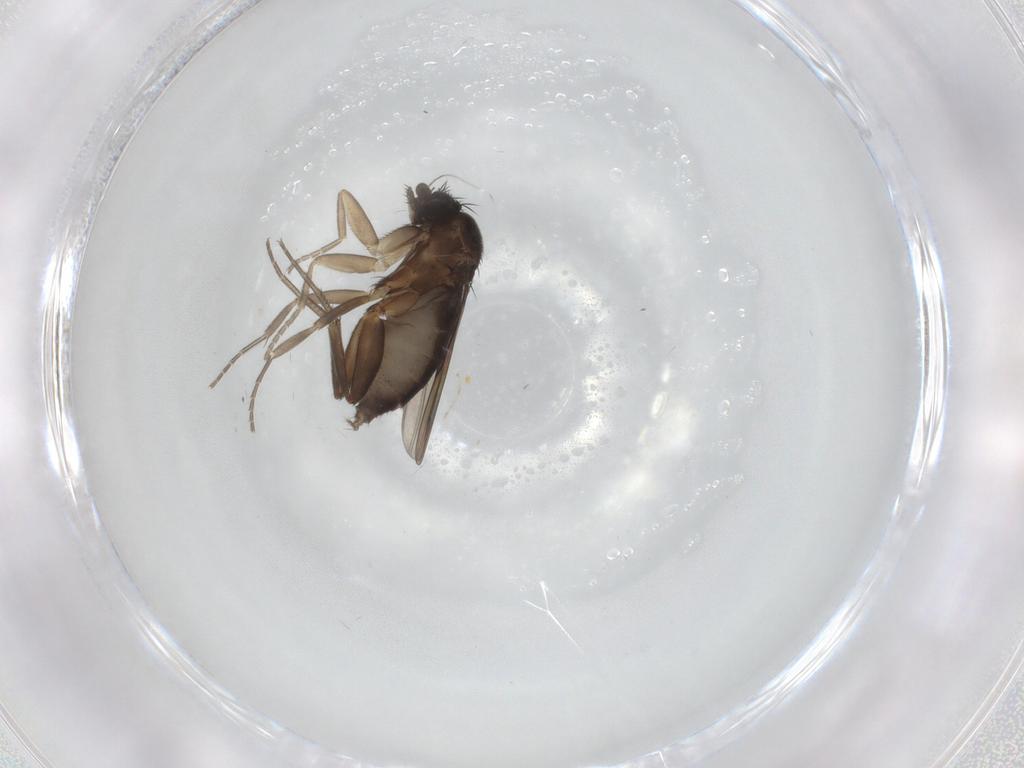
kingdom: Animalia
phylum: Arthropoda
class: Insecta
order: Diptera
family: Phoridae
